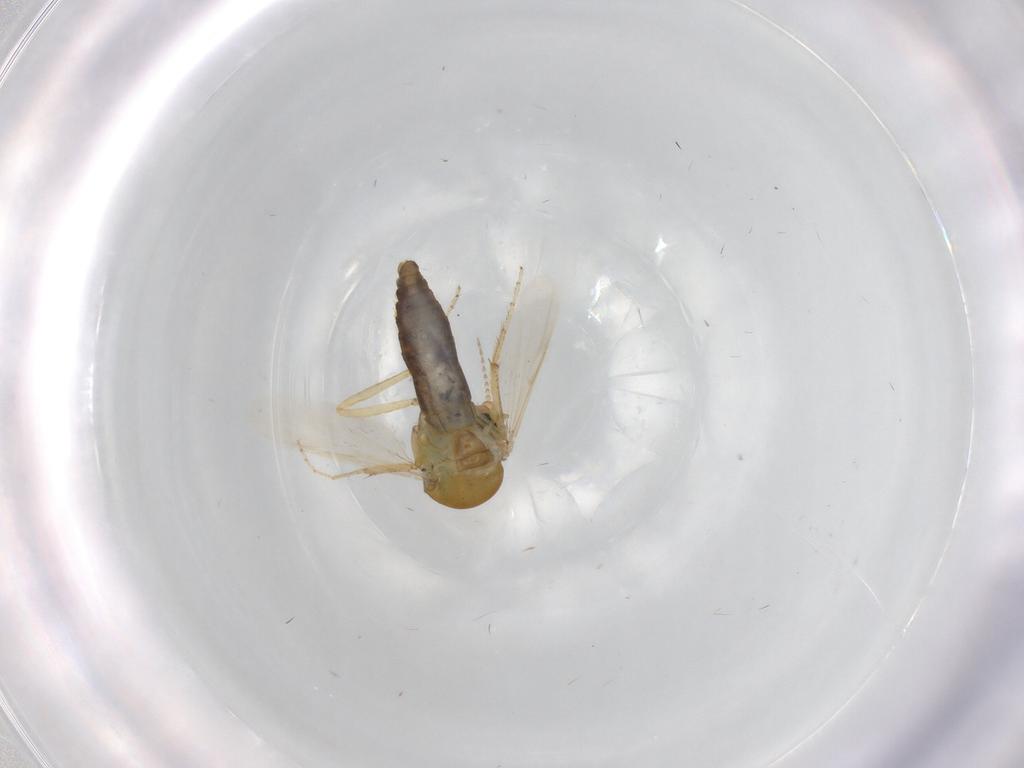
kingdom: Animalia
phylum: Arthropoda
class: Insecta
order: Diptera
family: Ceratopogonidae
